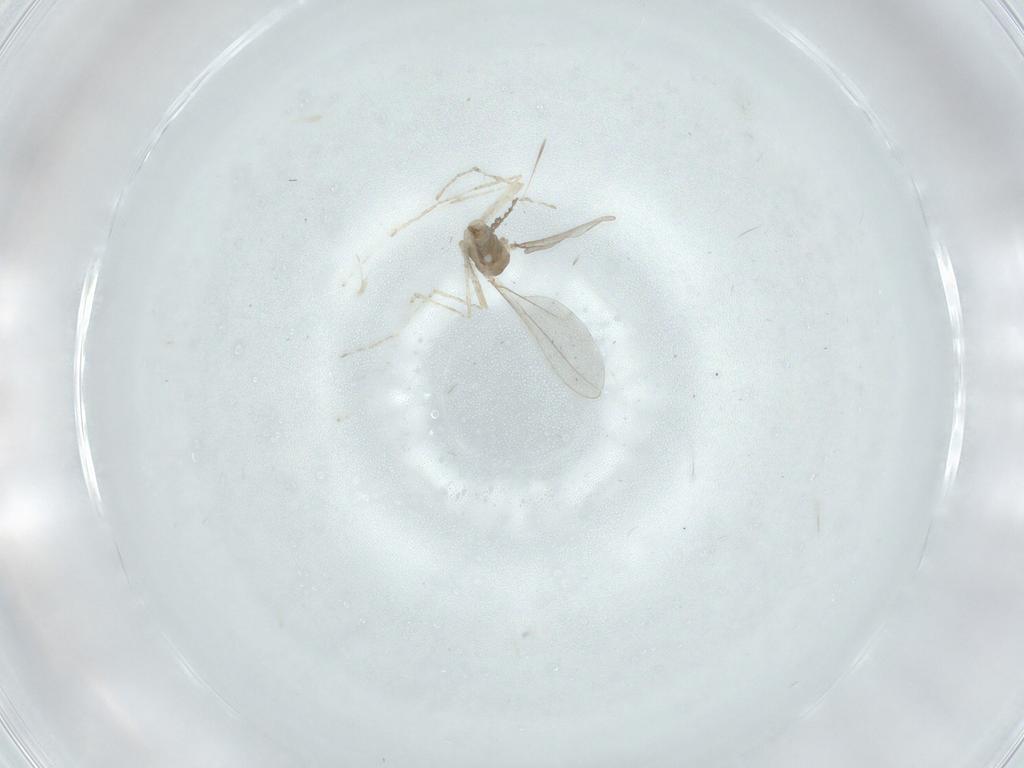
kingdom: Animalia
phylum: Arthropoda
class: Insecta
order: Diptera
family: Cecidomyiidae
